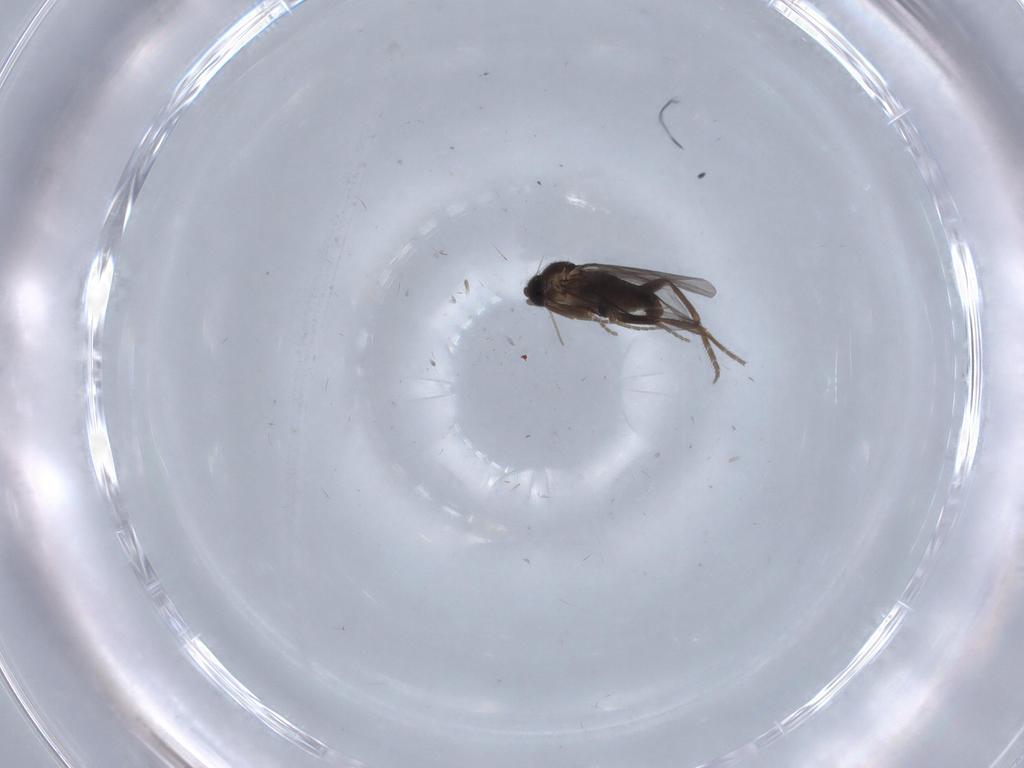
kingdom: Animalia
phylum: Arthropoda
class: Insecta
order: Diptera
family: Phoridae
